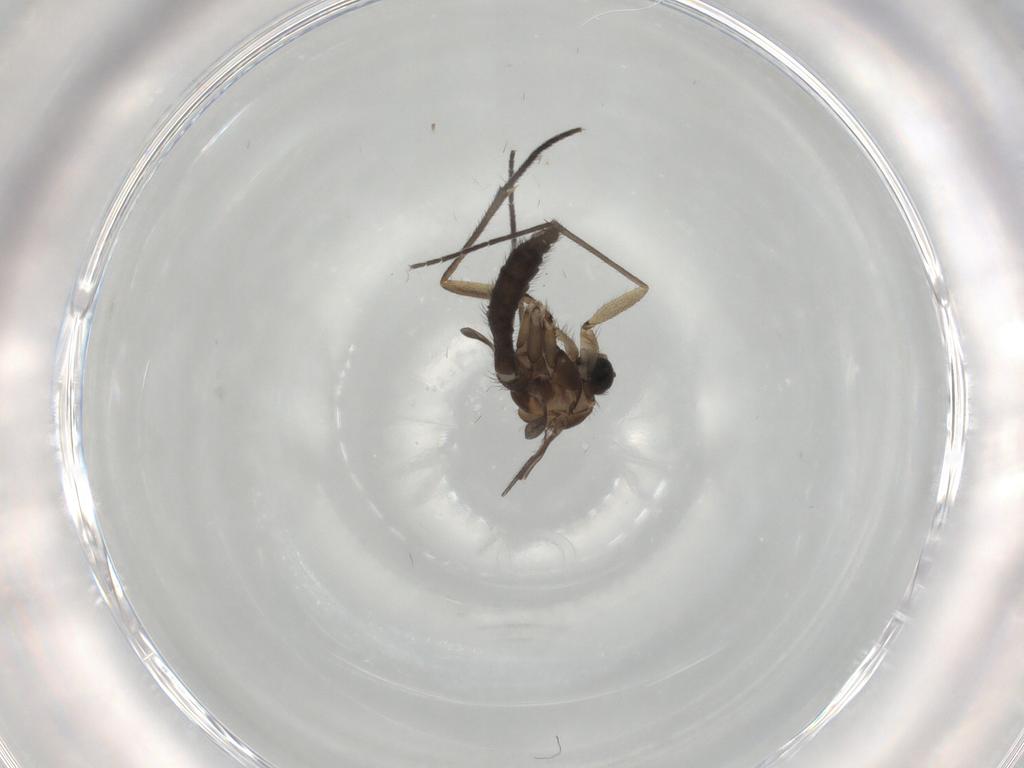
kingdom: Animalia
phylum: Arthropoda
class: Insecta
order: Diptera
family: Sciaridae
